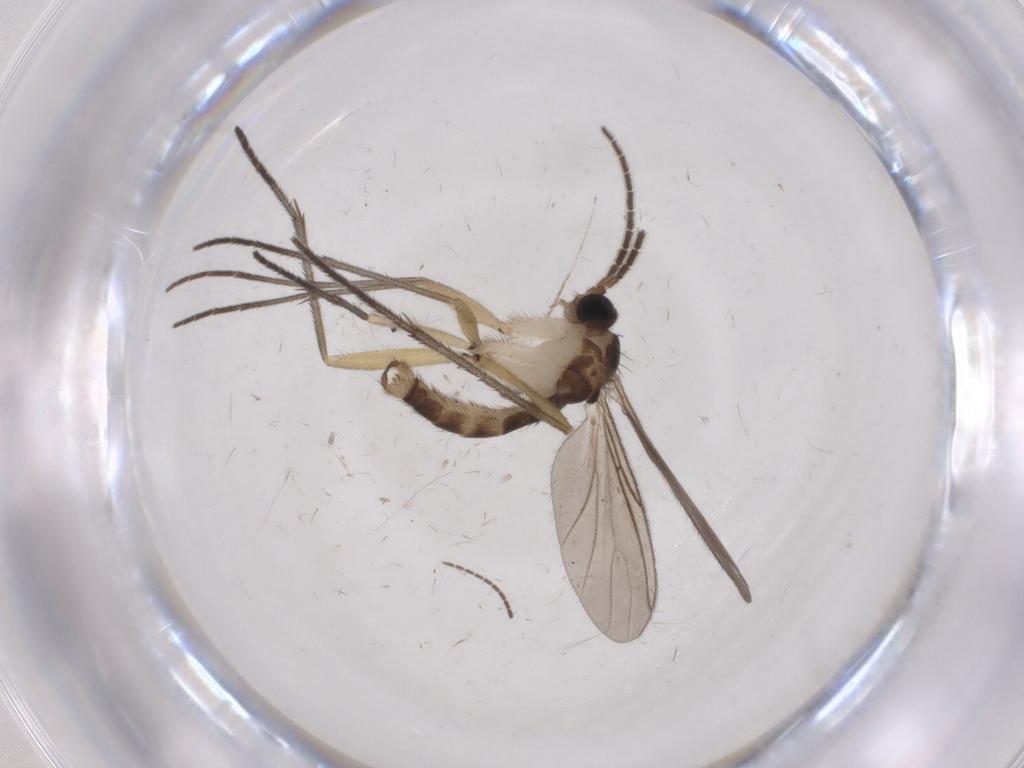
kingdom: Animalia
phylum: Arthropoda
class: Insecta
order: Diptera
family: Sciaridae
